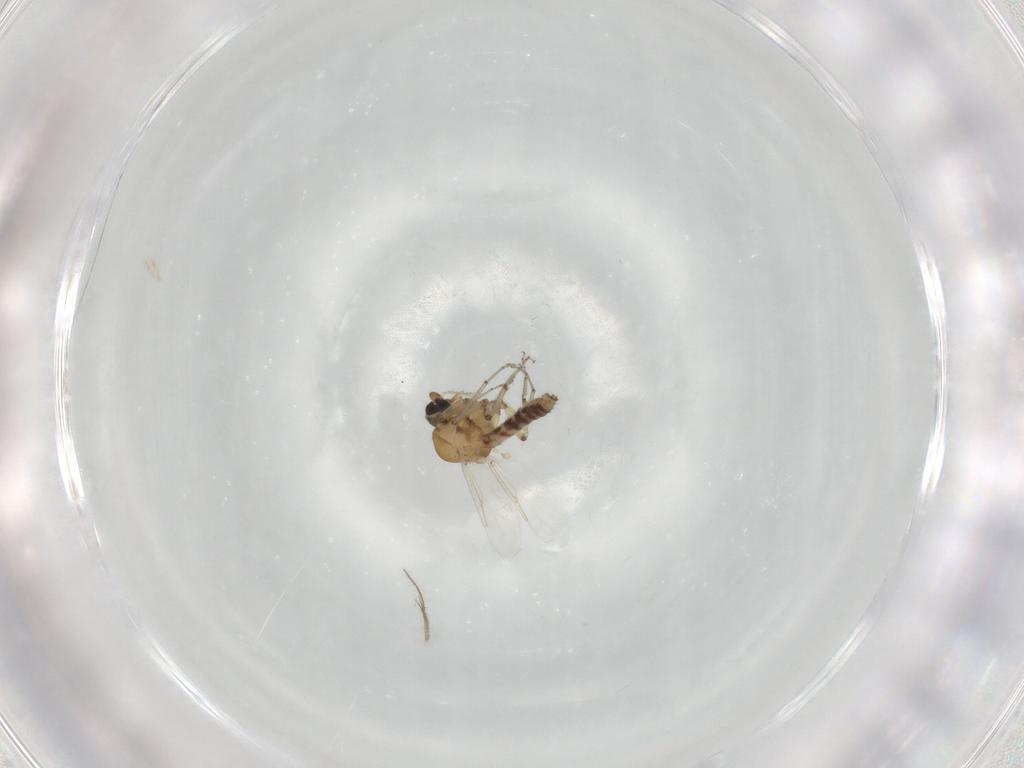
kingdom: Animalia
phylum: Arthropoda
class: Insecta
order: Diptera
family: Ceratopogonidae
